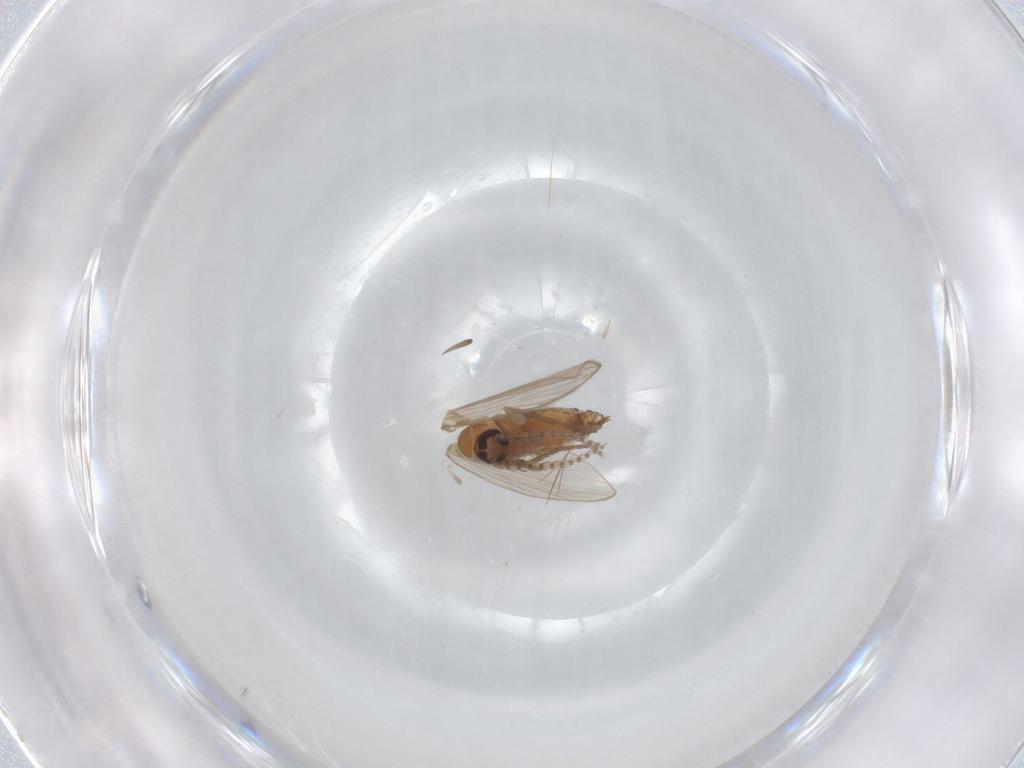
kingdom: Animalia
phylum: Arthropoda
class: Insecta
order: Diptera
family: Psychodidae
